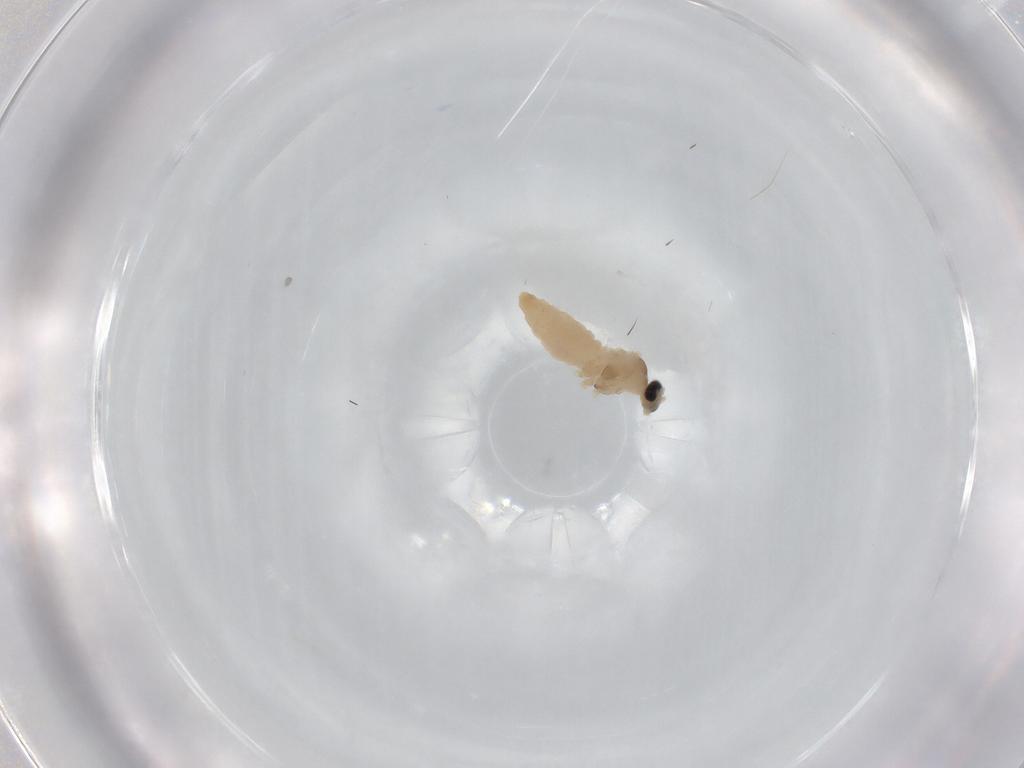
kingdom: Animalia
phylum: Arthropoda
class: Insecta
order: Diptera
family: Cecidomyiidae
